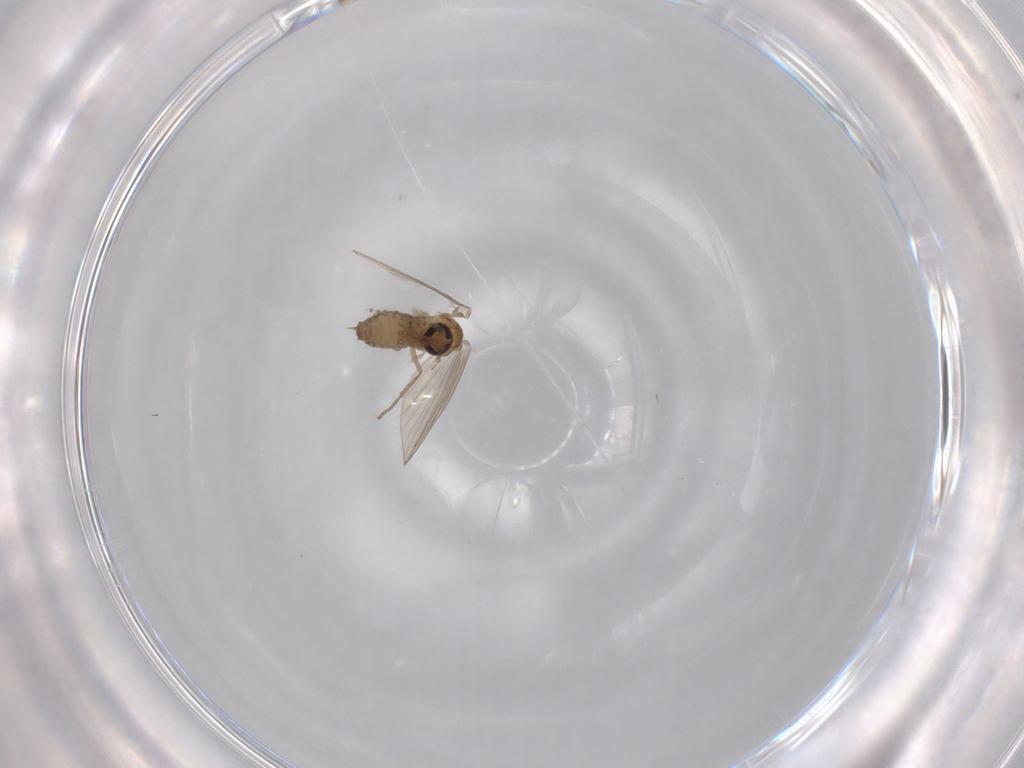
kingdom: Animalia
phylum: Arthropoda
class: Insecta
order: Diptera
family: Psychodidae
